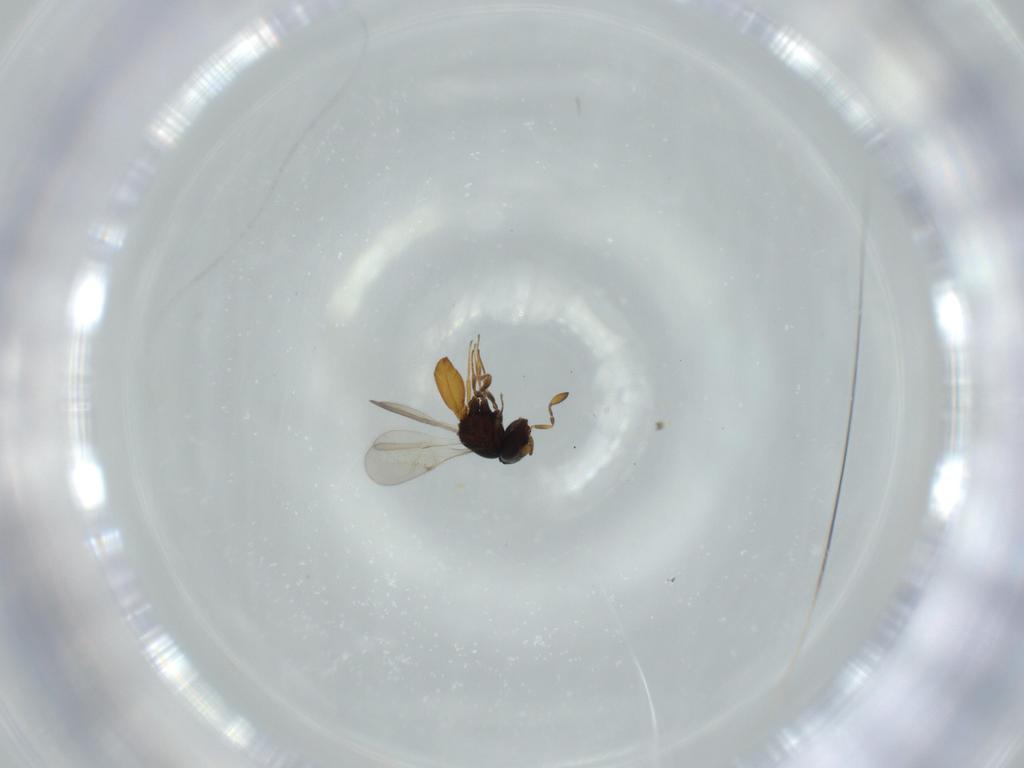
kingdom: Animalia
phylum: Arthropoda
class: Insecta
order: Hymenoptera
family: Scelionidae
